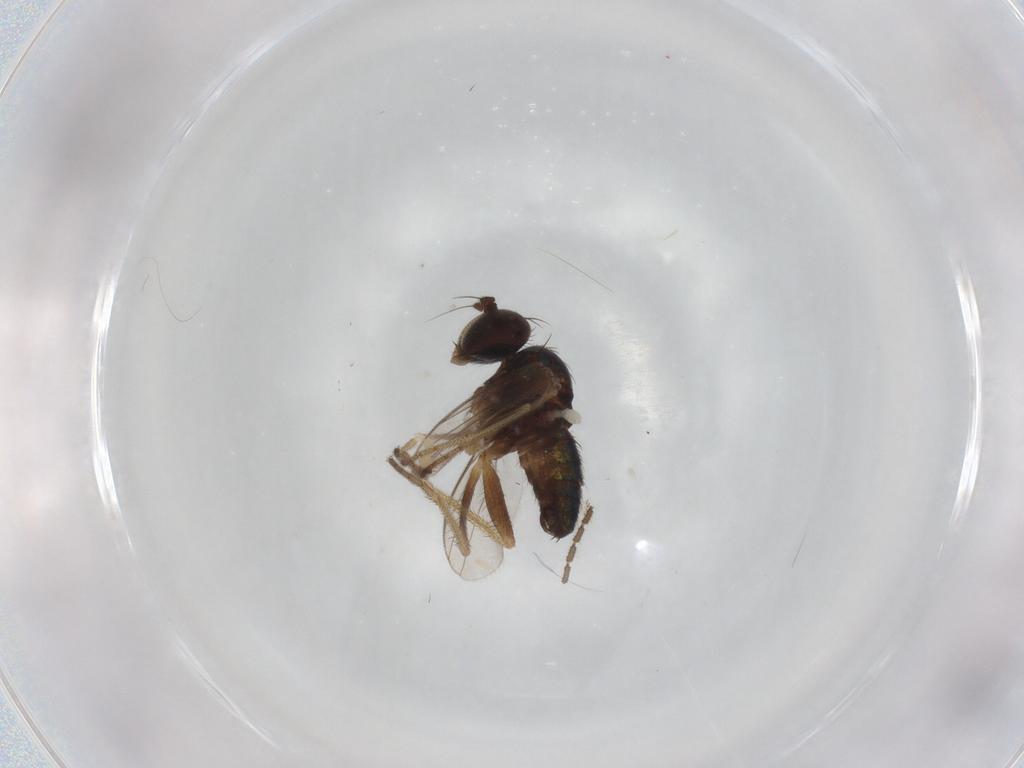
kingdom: Animalia
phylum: Arthropoda
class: Insecta
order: Diptera
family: Dolichopodidae
